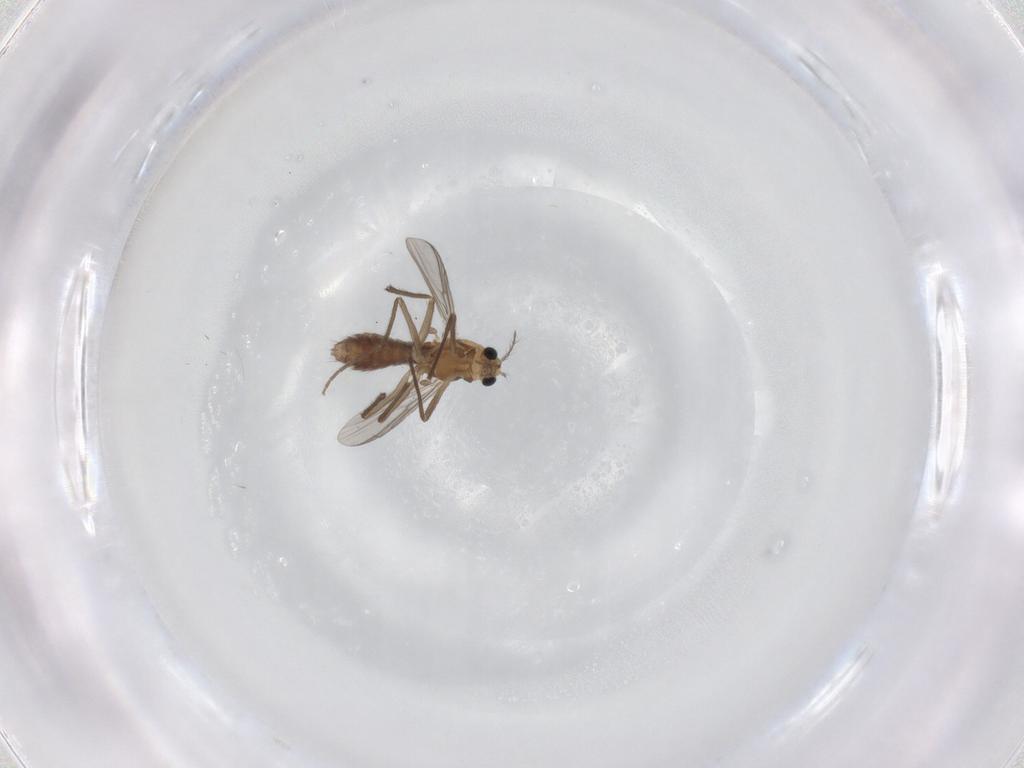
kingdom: Animalia
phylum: Arthropoda
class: Insecta
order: Diptera
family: Chironomidae
